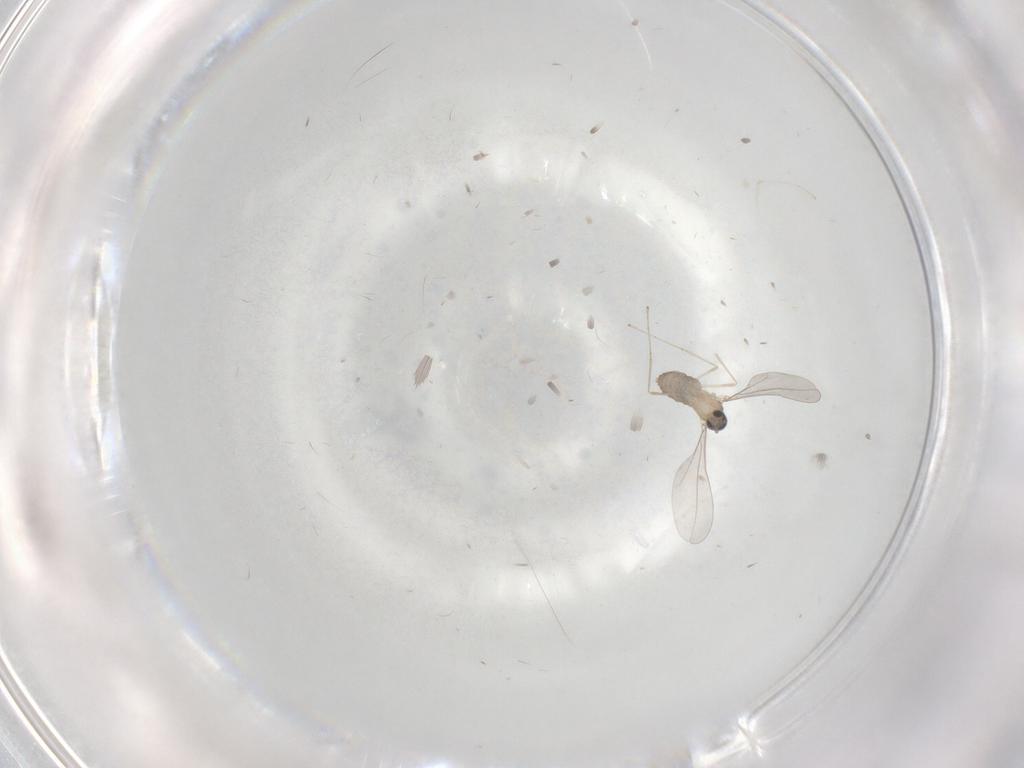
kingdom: Animalia
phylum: Arthropoda
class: Insecta
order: Diptera
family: Cecidomyiidae
